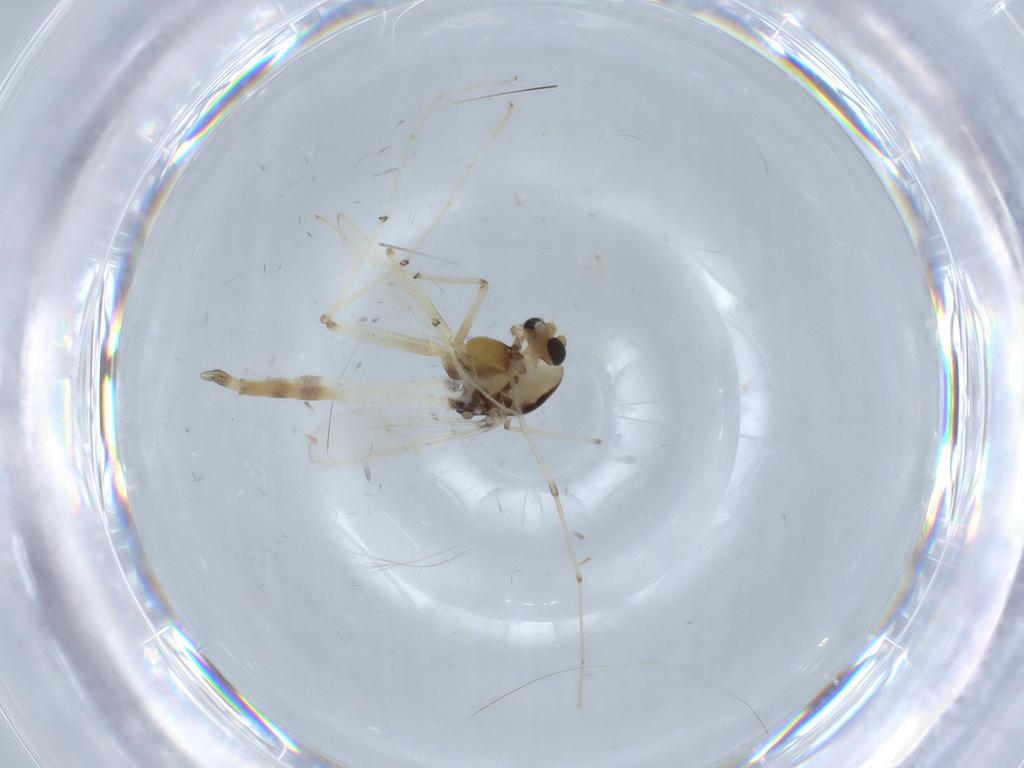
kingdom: Animalia
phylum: Arthropoda
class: Insecta
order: Diptera
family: Chironomidae
